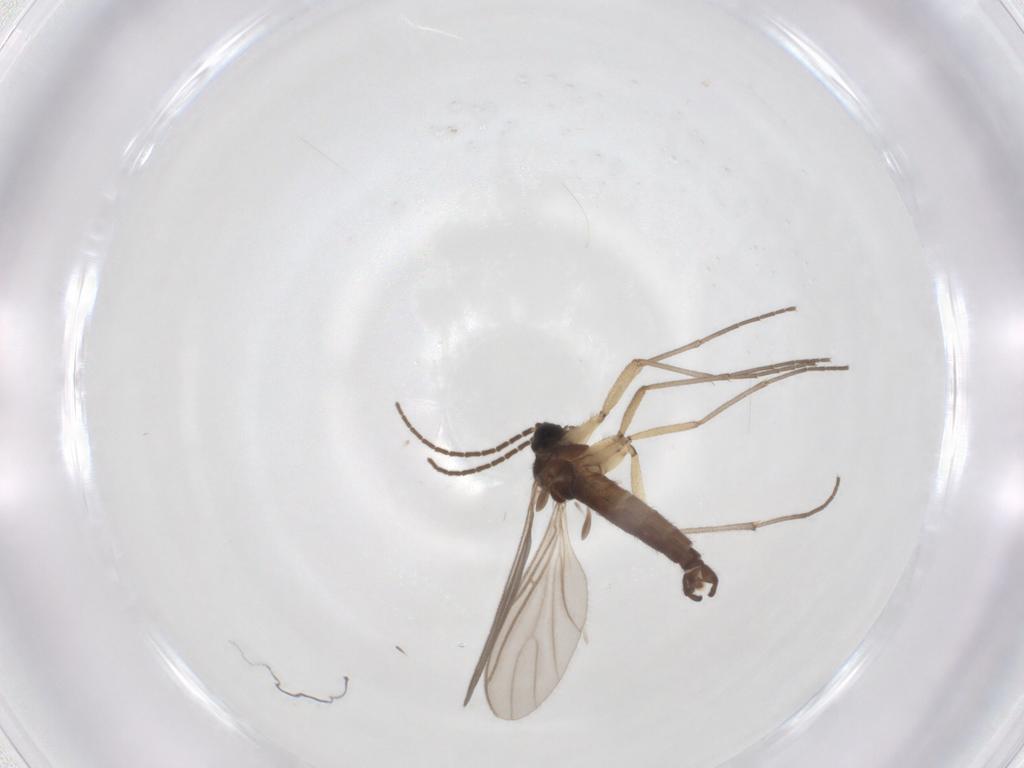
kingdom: Animalia
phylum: Arthropoda
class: Insecta
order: Diptera
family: Sciaridae
